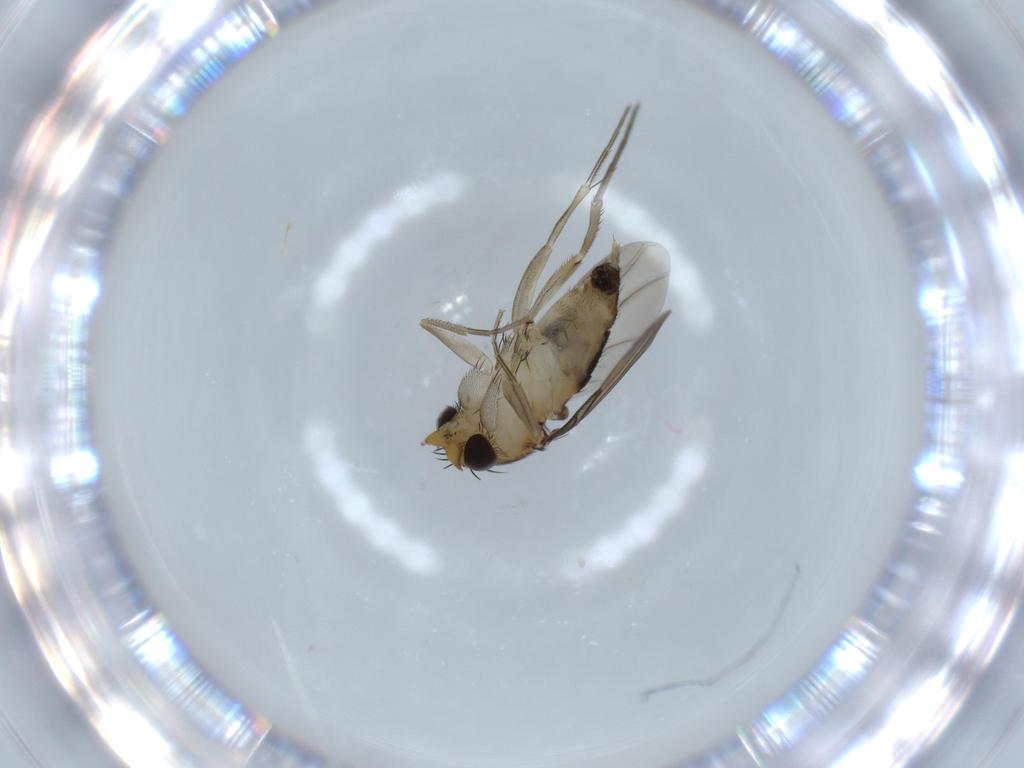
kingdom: Animalia
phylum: Arthropoda
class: Insecta
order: Diptera
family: Phoridae
